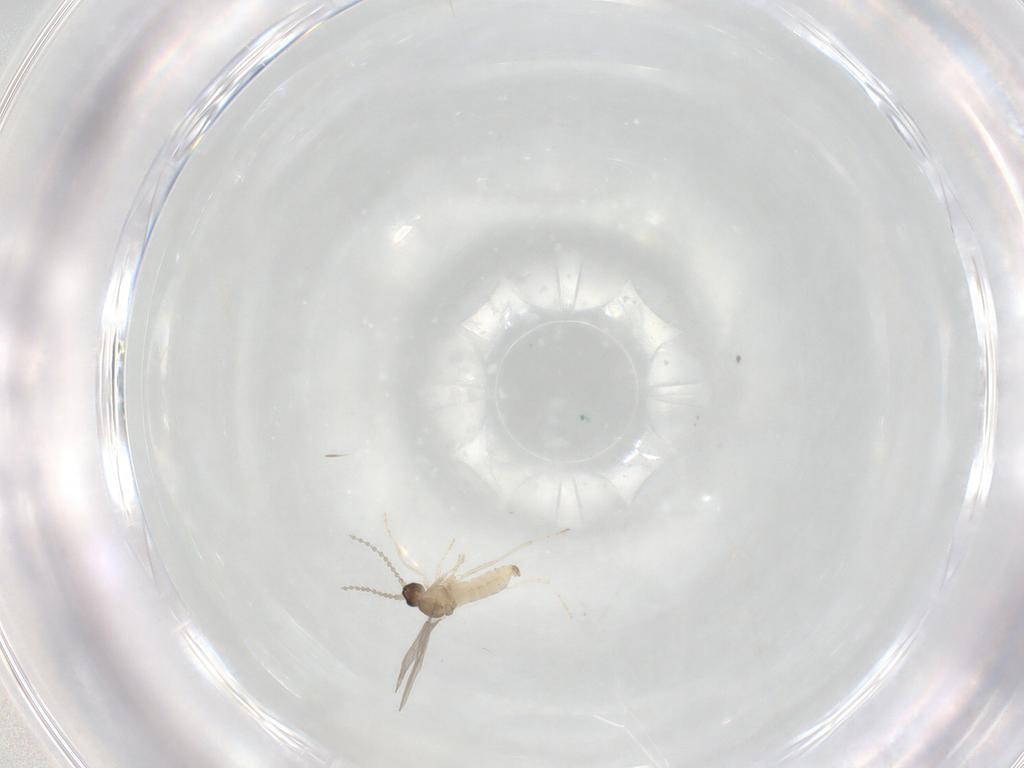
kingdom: Animalia
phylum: Arthropoda
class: Insecta
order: Diptera
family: Cecidomyiidae
